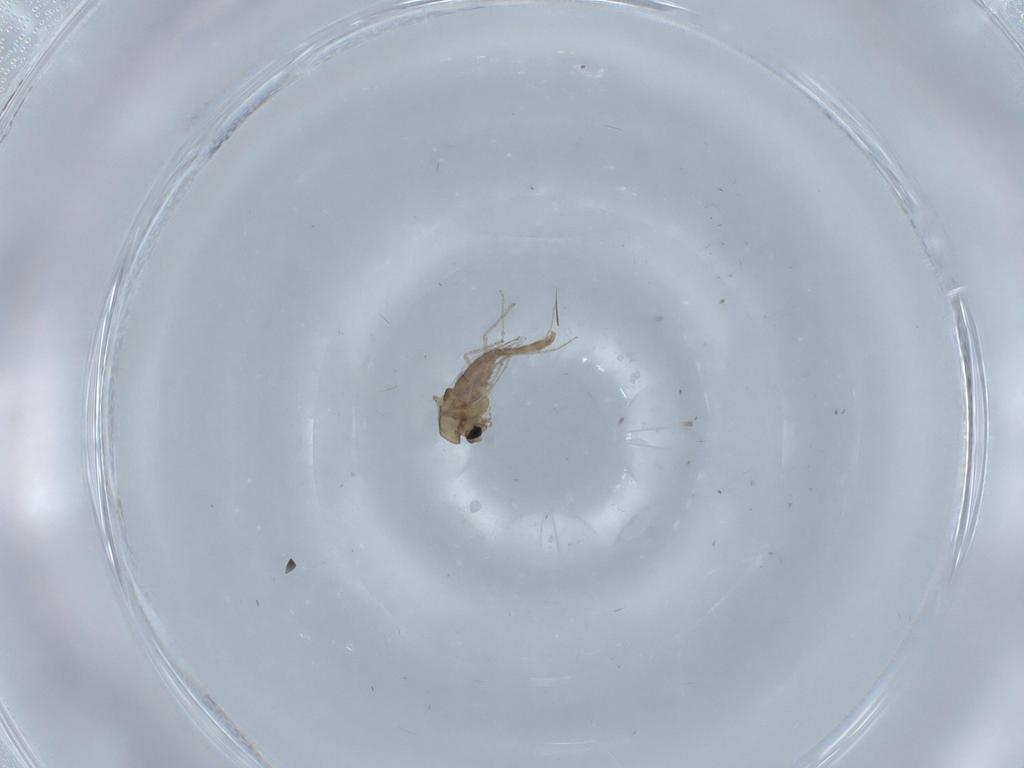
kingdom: Animalia
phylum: Arthropoda
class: Insecta
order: Diptera
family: Chironomidae
